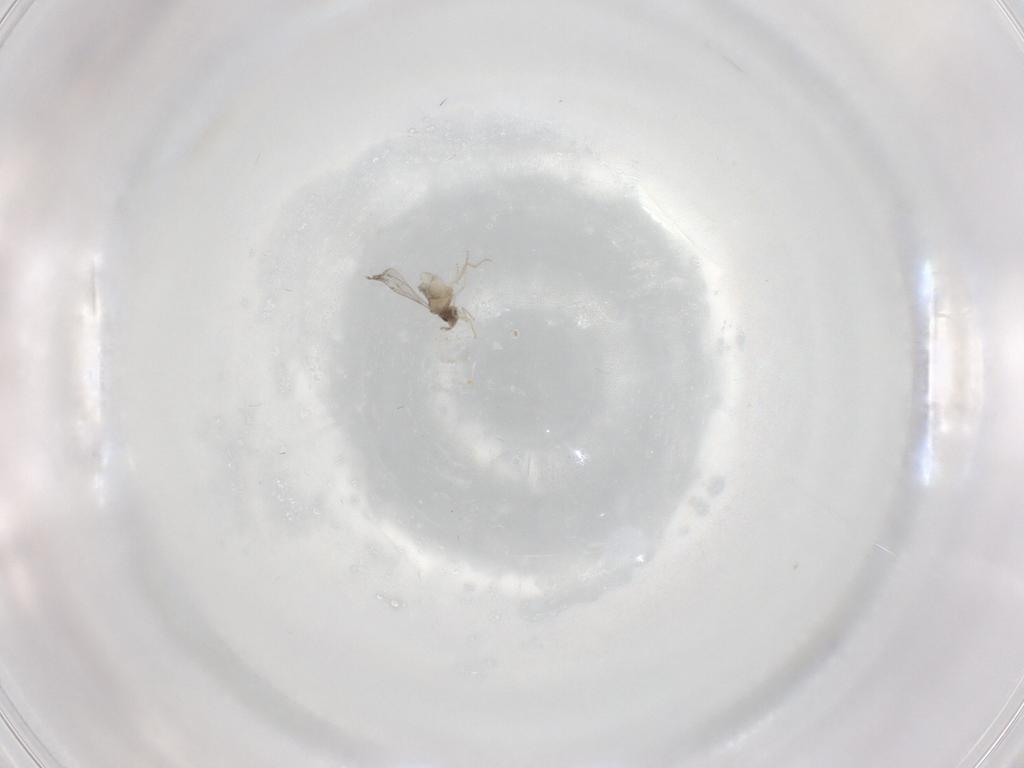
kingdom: Animalia
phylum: Arthropoda
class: Insecta
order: Diptera
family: Cecidomyiidae
